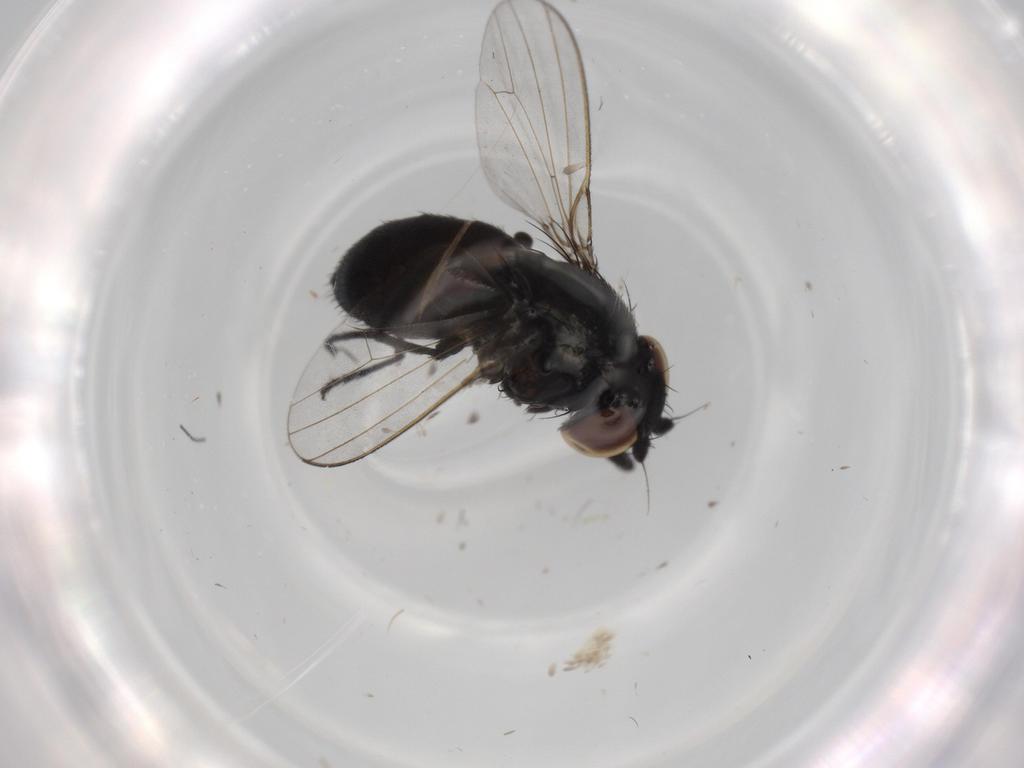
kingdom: Animalia
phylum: Arthropoda
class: Insecta
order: Diptera
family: Milichiidae
